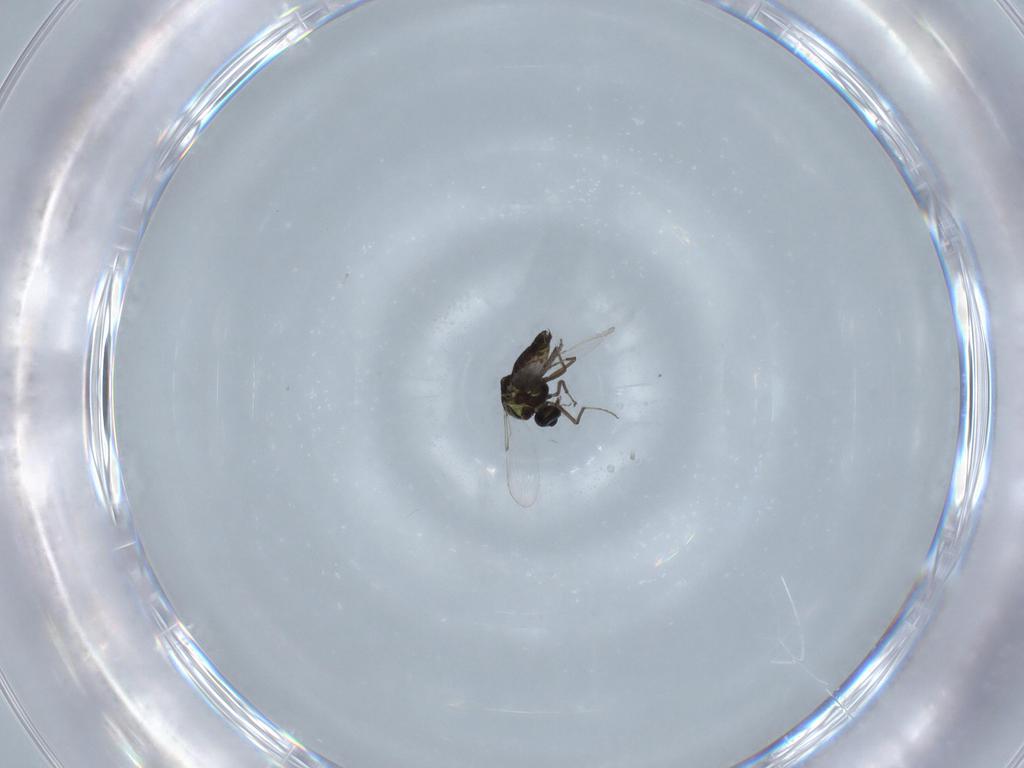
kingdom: Animalia
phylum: Arthropoda
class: Insecta
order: Diptera
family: Ceratopogonidae
